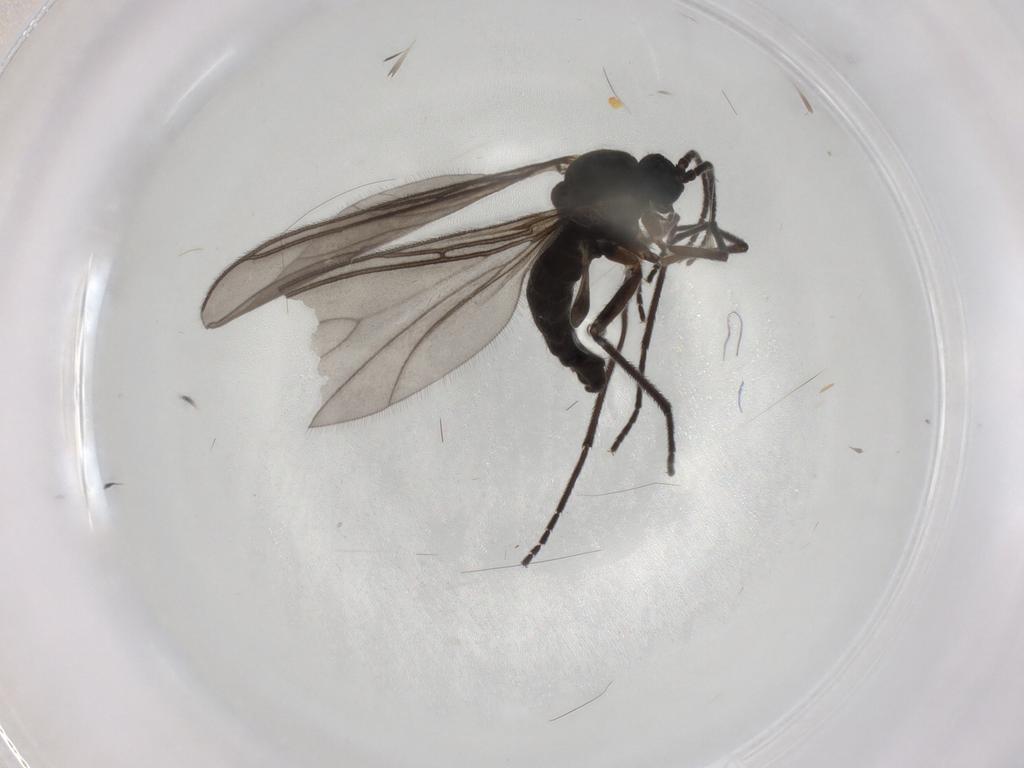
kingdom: Animalia
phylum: Arthropoda
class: Insecta
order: Diptera
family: Sciaridae
